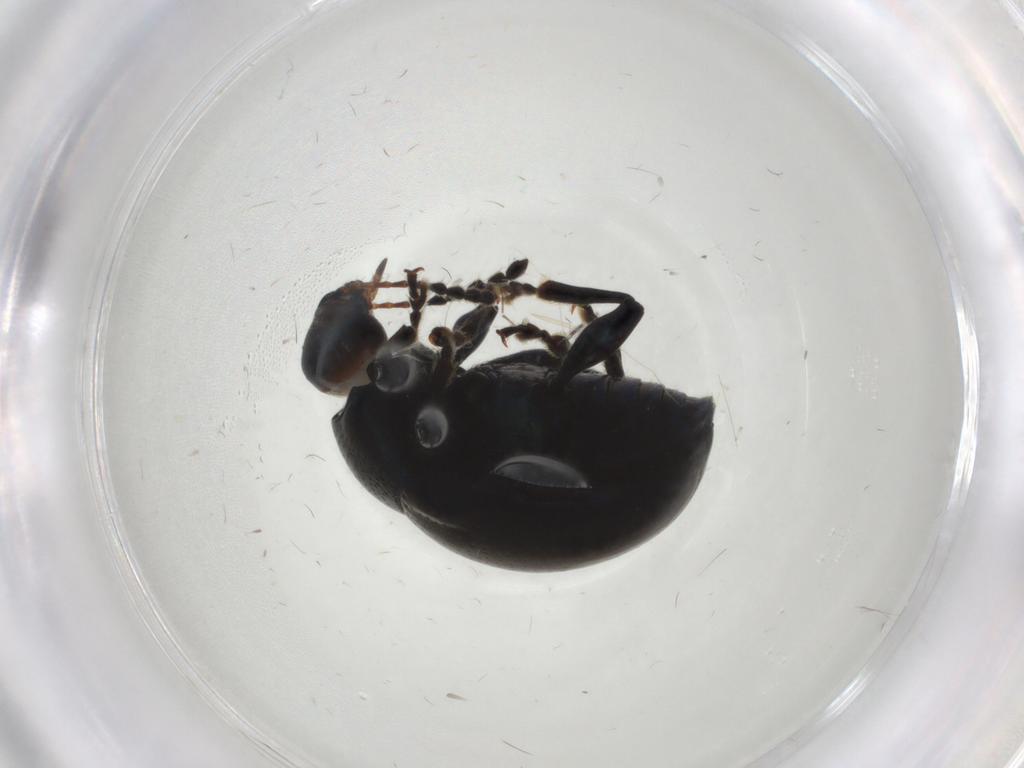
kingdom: Animalia
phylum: Arthropoda
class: Insecta
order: Coleoptera
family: Chrysomelidae
